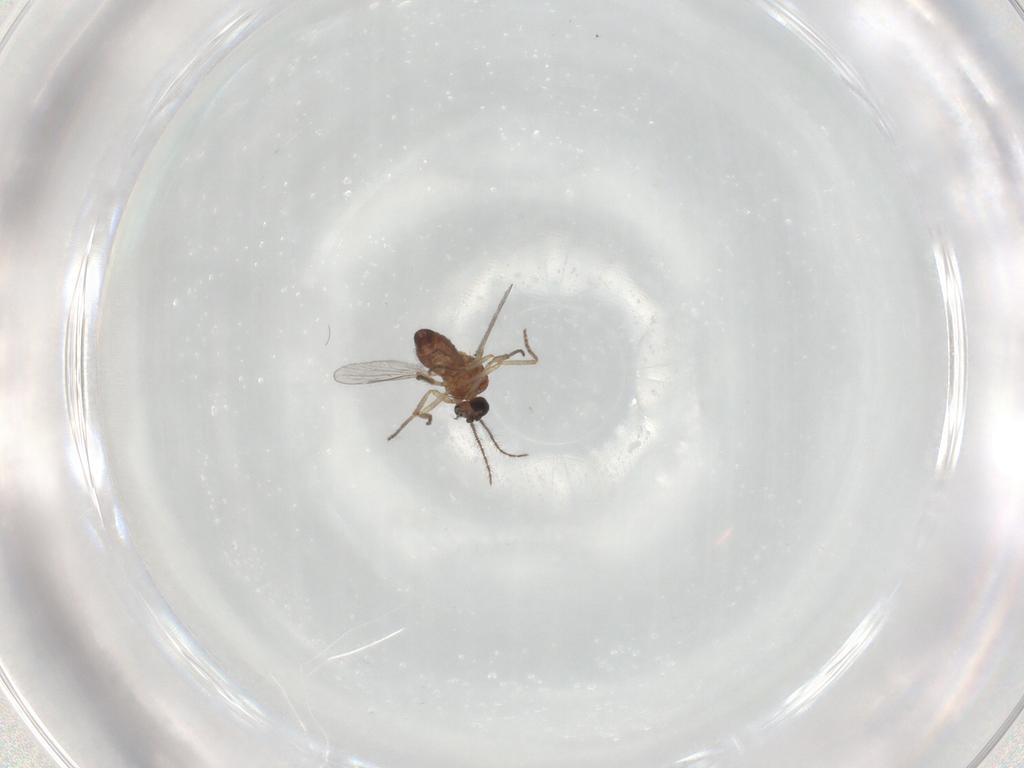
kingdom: Animalia
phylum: Arthropoda
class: Insecta
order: Diptera
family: Ceratopogonidae
